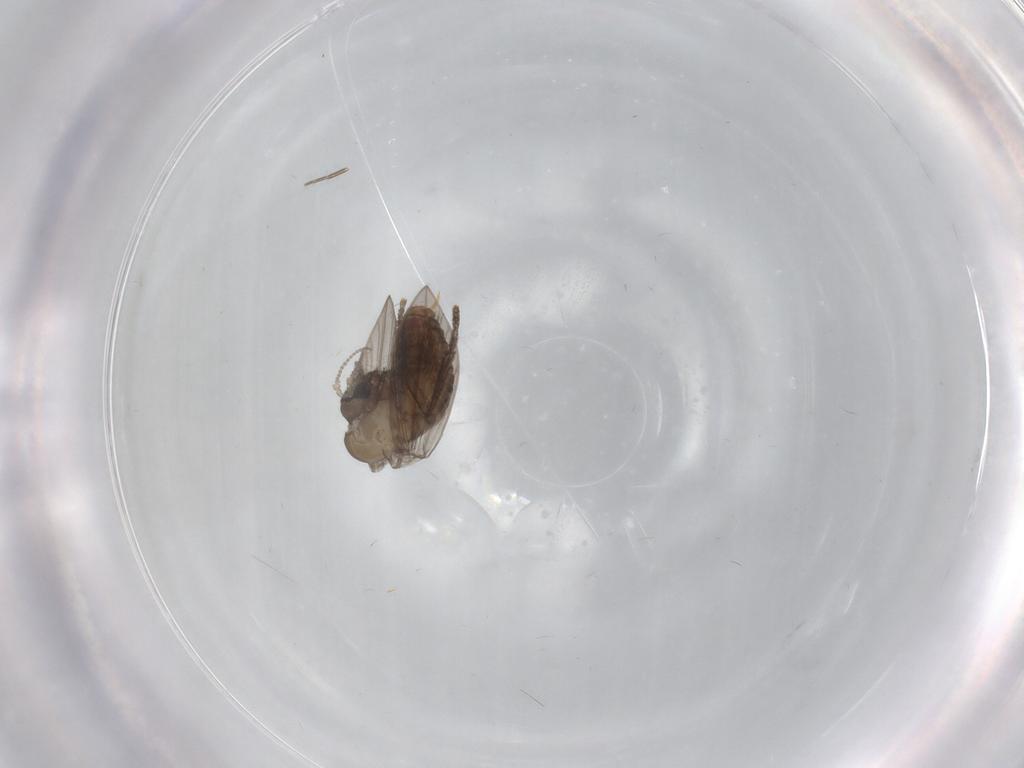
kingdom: Animalia
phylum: Arthropoda
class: Insecta
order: Diptera
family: Psychodidae
